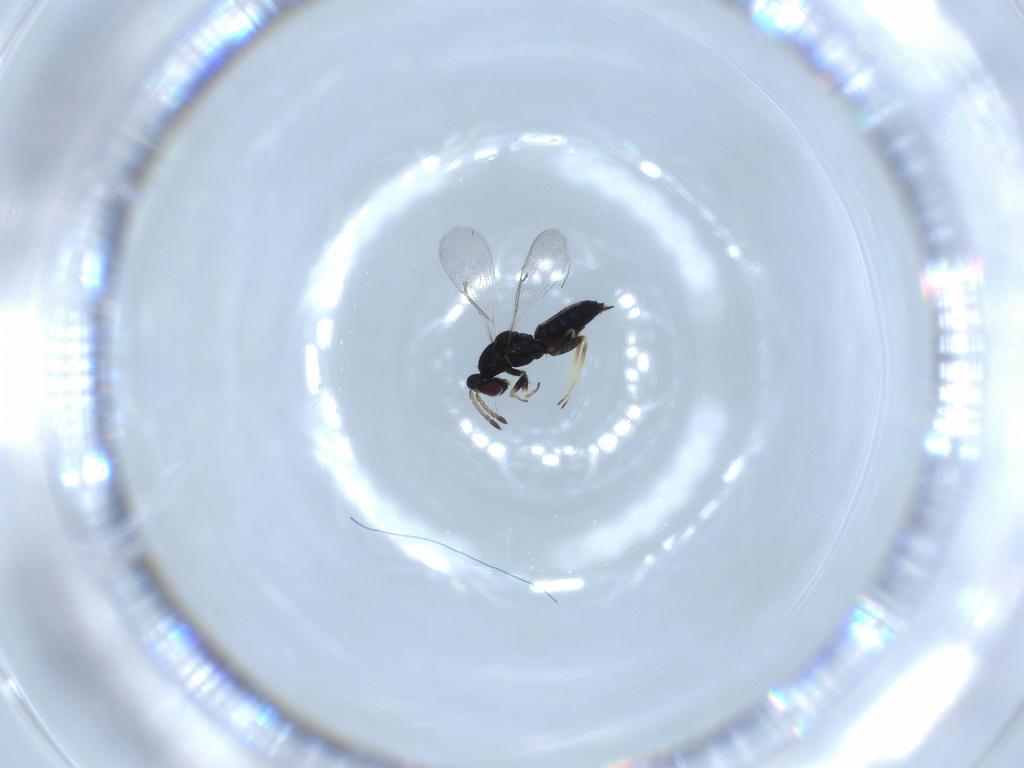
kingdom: Animalia
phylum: Arthropoda
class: Insecta
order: Hymenoptera
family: Eulophidae
